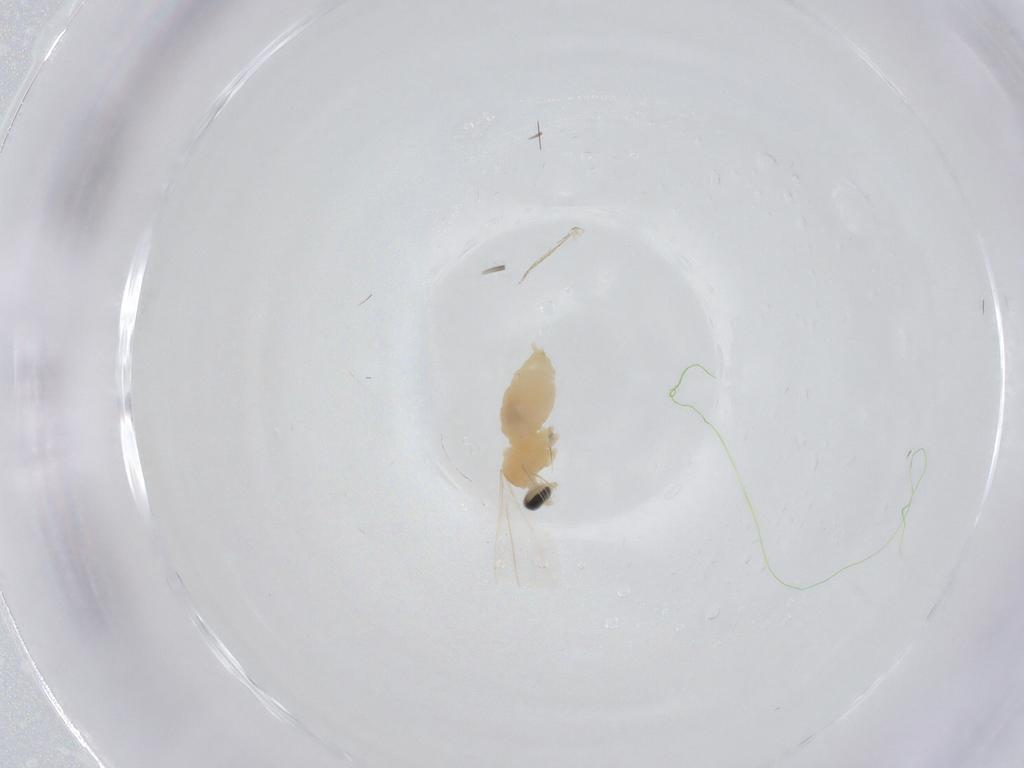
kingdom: Animalia
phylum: Arthropoda
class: Insecta
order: Diptera
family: Cecidomyiidae
